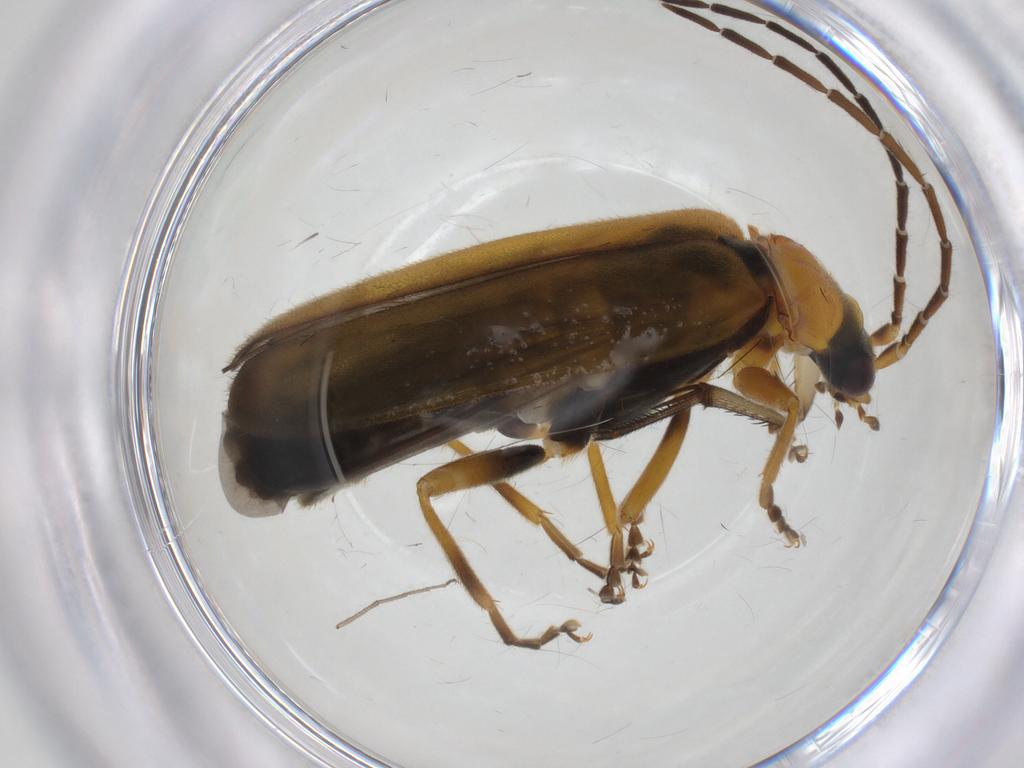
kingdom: Animalia
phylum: Arthropoda
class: Insecta
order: Coleoptera
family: Cantharidae
